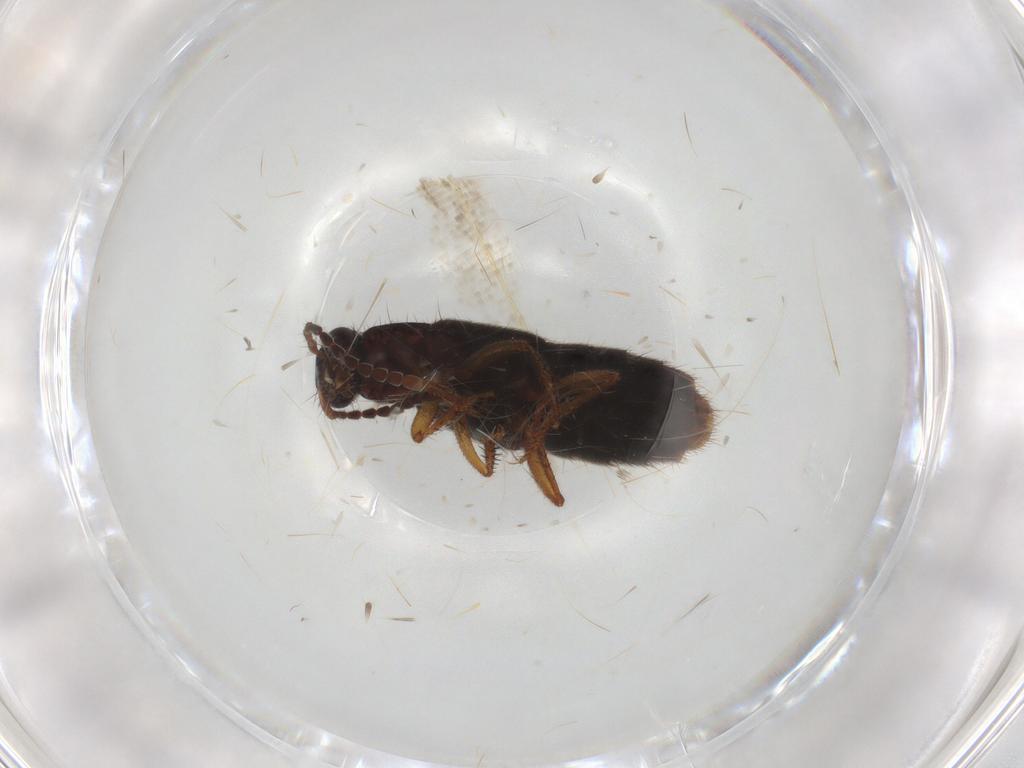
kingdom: Animalia
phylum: Arthropoda
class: Insecta
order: Coleoptera
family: Staphylinidae
